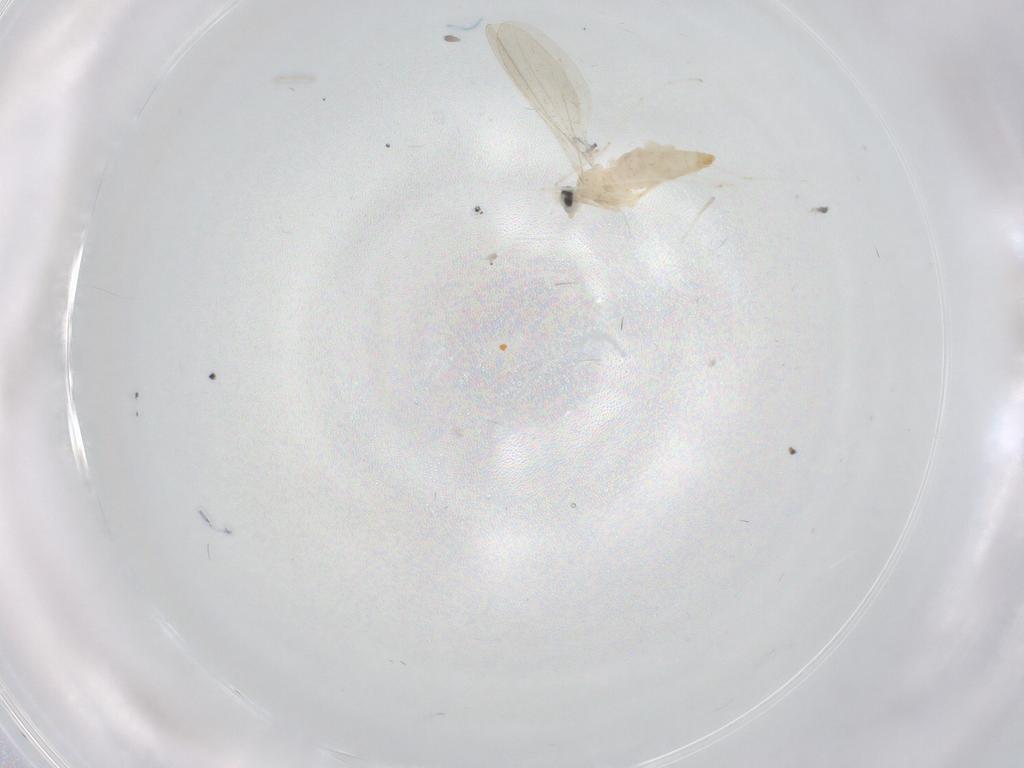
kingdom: Animalia
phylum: Arthropoda
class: Insecta
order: Diptera
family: Cecidomyiidae
